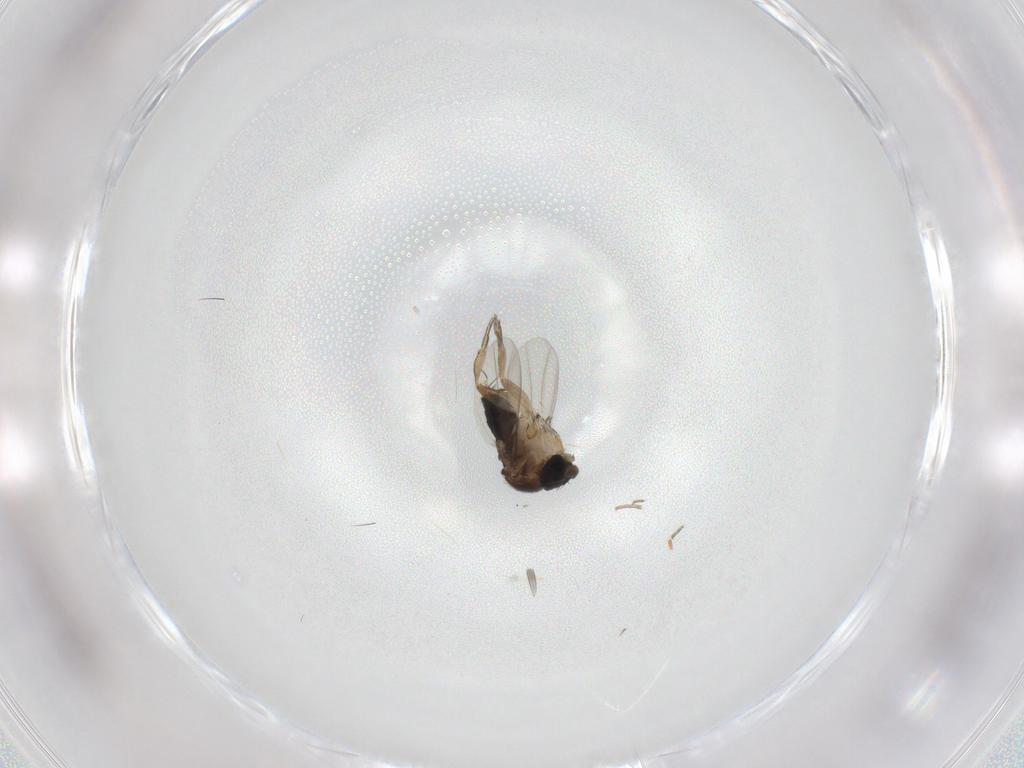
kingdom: Animalia
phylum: Arthropoda
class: Insecta
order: Diptera
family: Phoridae
